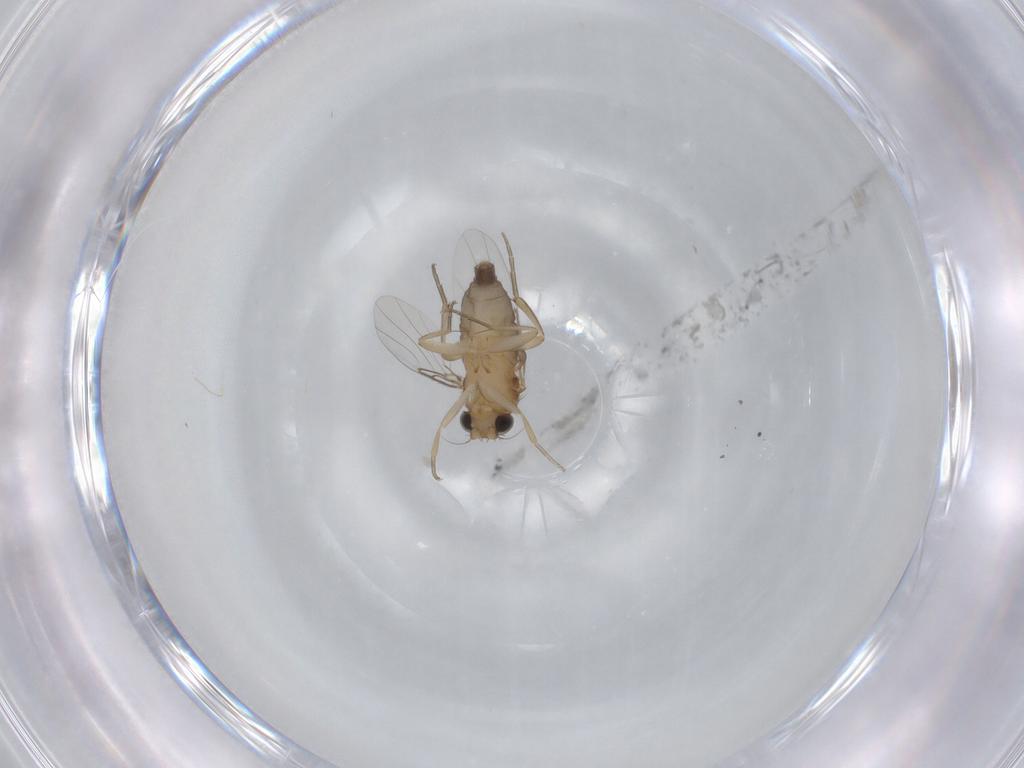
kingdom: Animalia
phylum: Arthropoda
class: Insecta
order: Diptera
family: Phoridae
